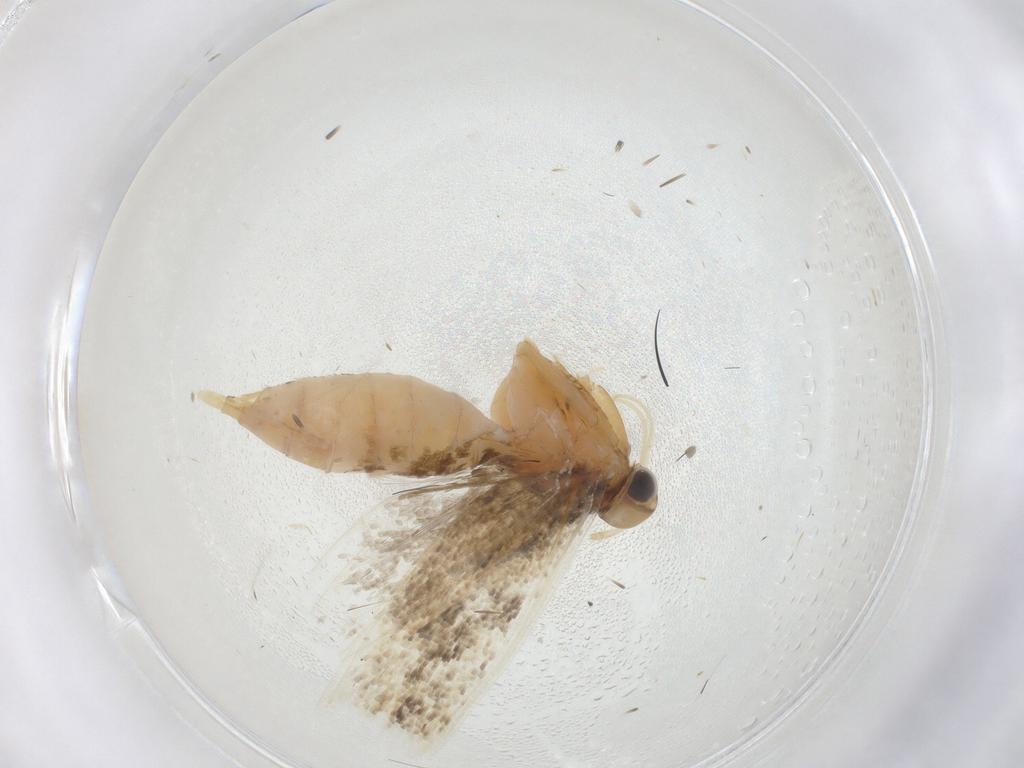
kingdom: Animalia
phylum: Arthropoda
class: Insecta
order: Lepidoptera
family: Gelechiidae
